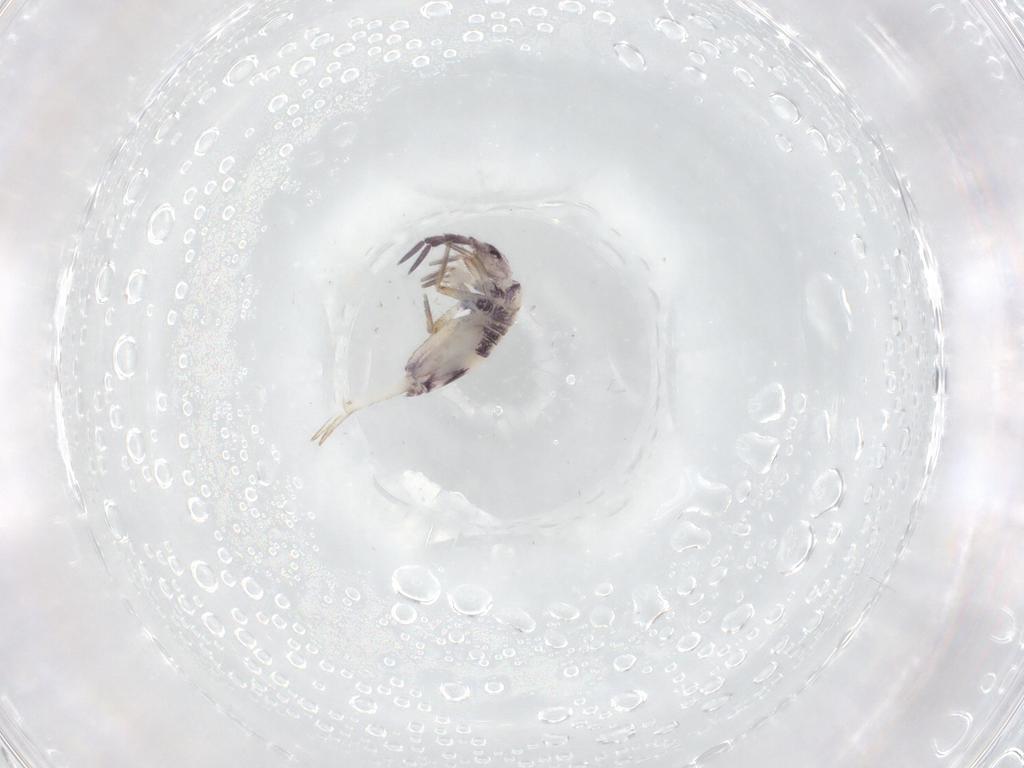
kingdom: Animalia
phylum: Arthropoda
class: Collembola
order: Entomobryomorpha
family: Entomobryidae
